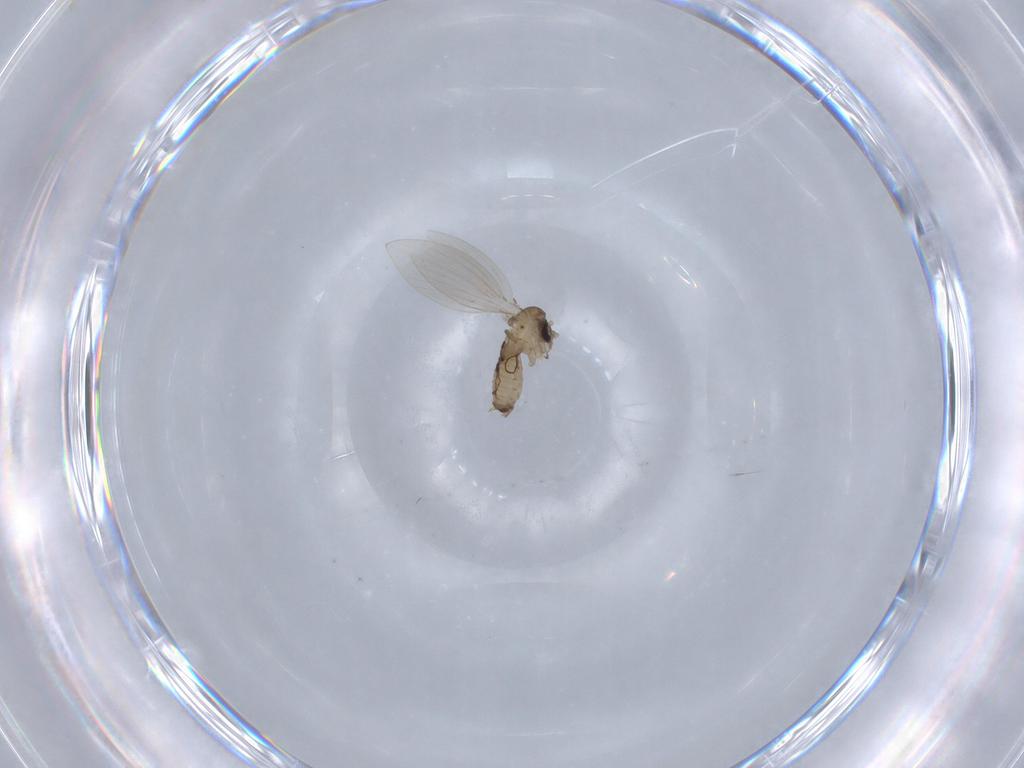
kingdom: Animalia
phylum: Arthropoda
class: Insecta
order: Diptera
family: Psychodidae
